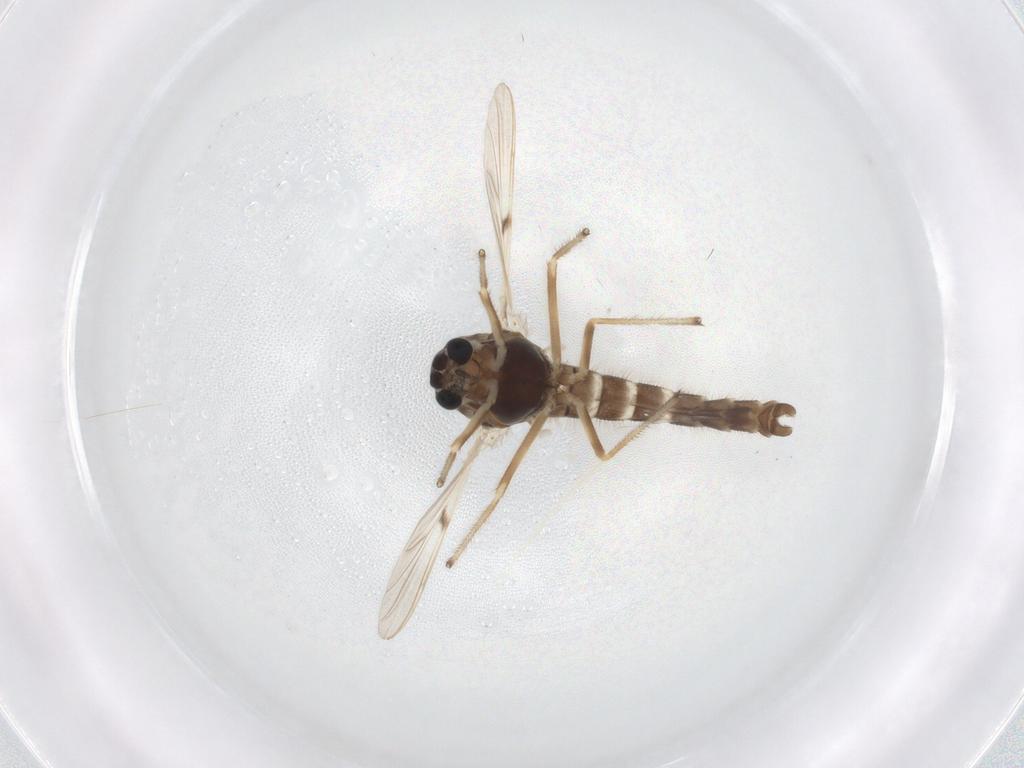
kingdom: Animalia
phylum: Arthropoda
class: Insecta
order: Diptera
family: Chironomidae
